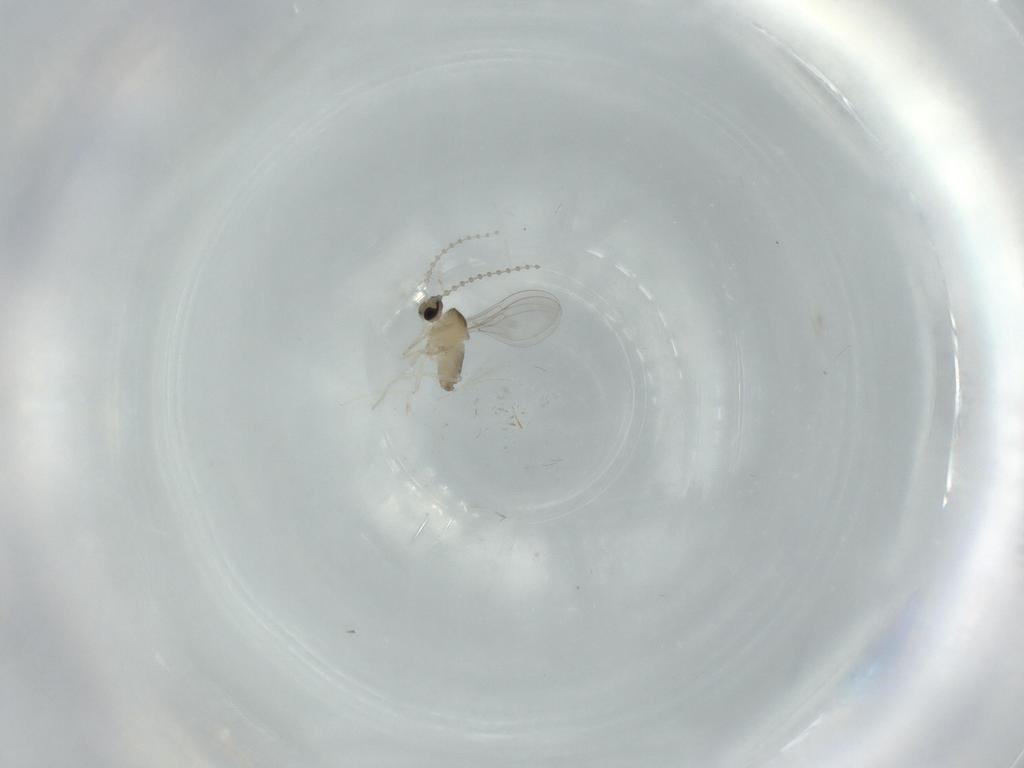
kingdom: Animalia
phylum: Arthropoda
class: Insecta
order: Diptera
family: Cecidomyiidae
